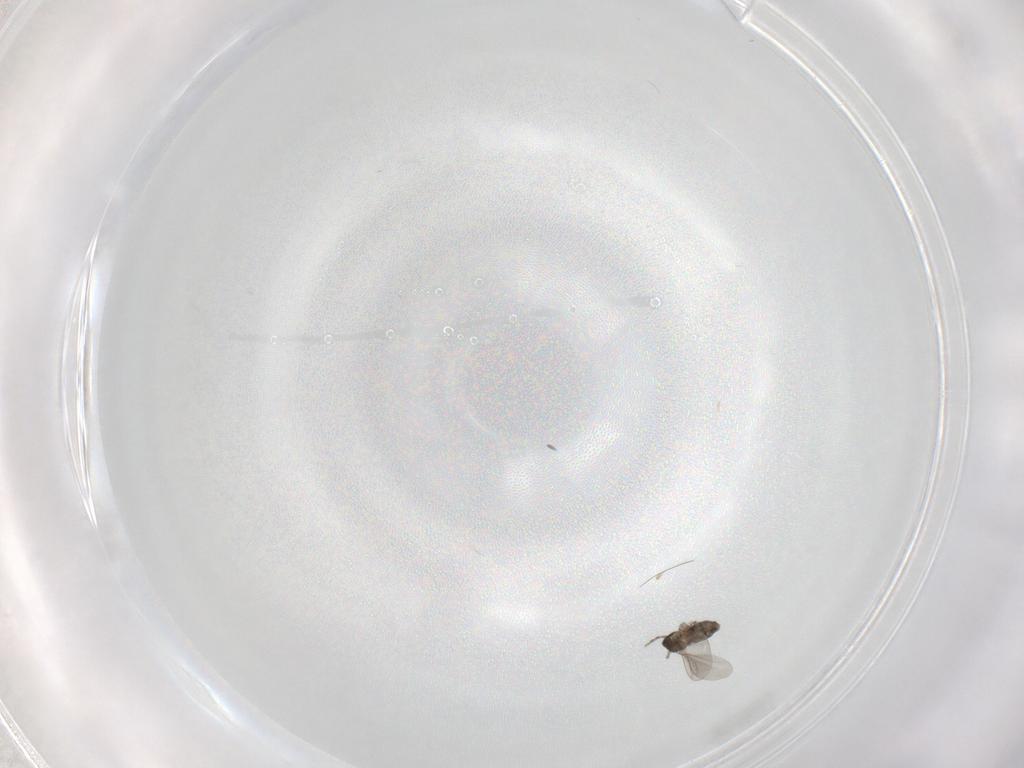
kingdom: Animalia
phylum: Arthropoda
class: Insecta
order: Diptera
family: Cecidomyiidae
